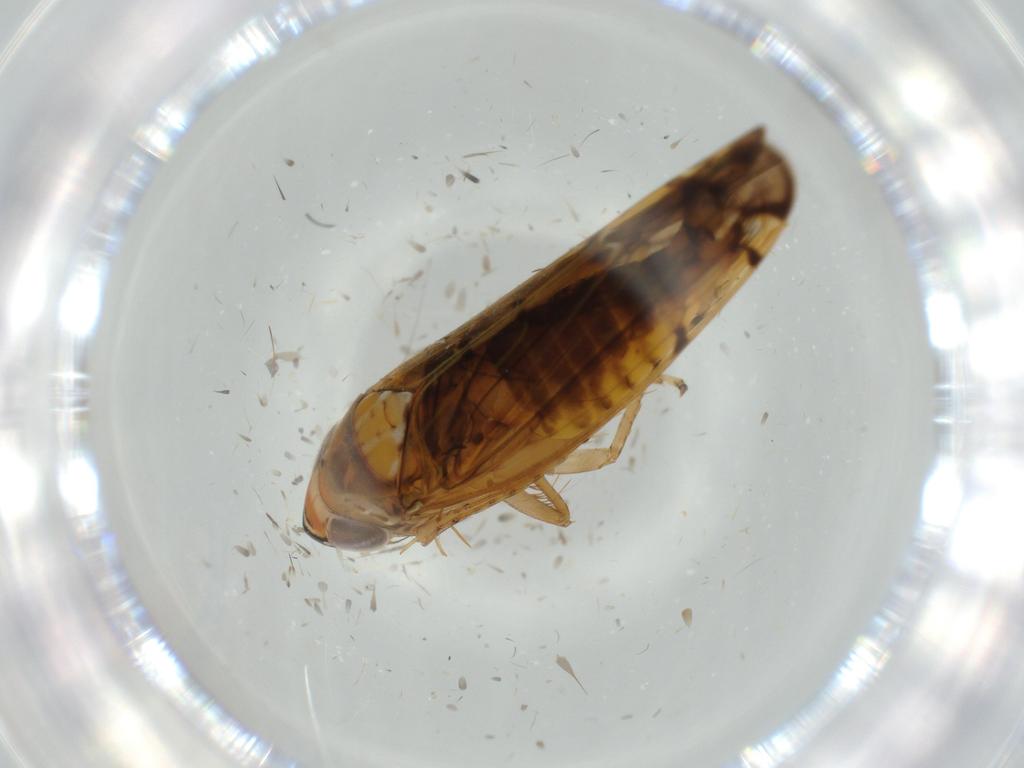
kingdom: Animalia
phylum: Arthropoda
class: Insecta
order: Hemiptera
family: Cicadellidae
